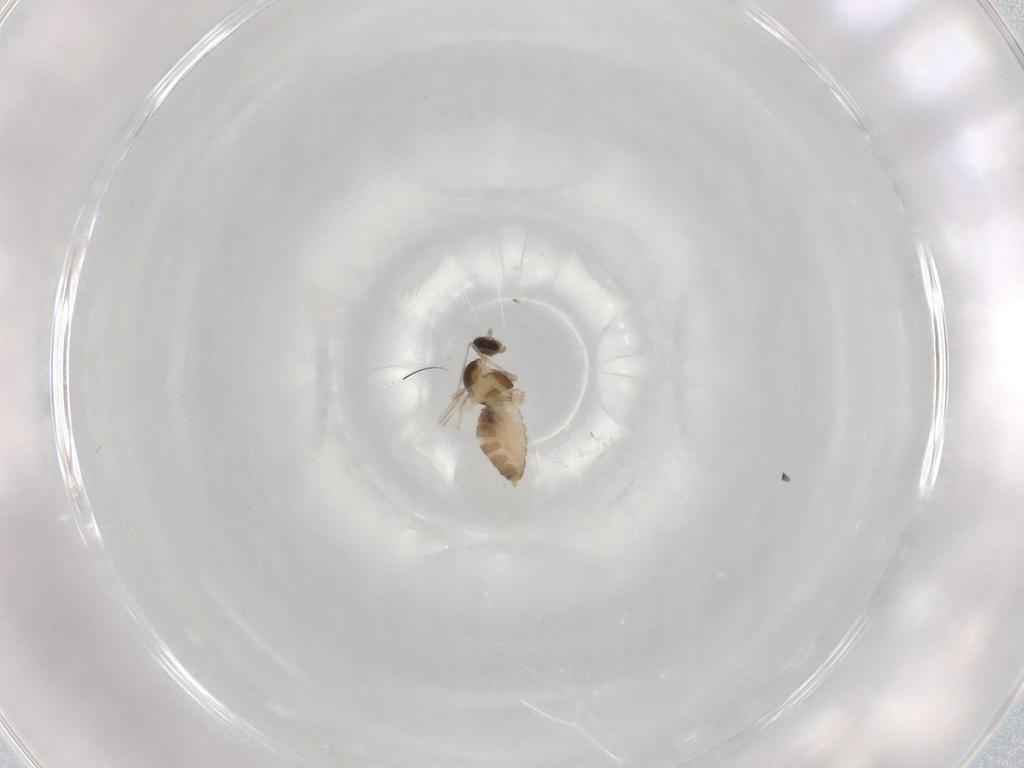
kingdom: Animalia
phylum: Arthropoda
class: Insecta
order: Diptera
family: Cecidomyiidae
